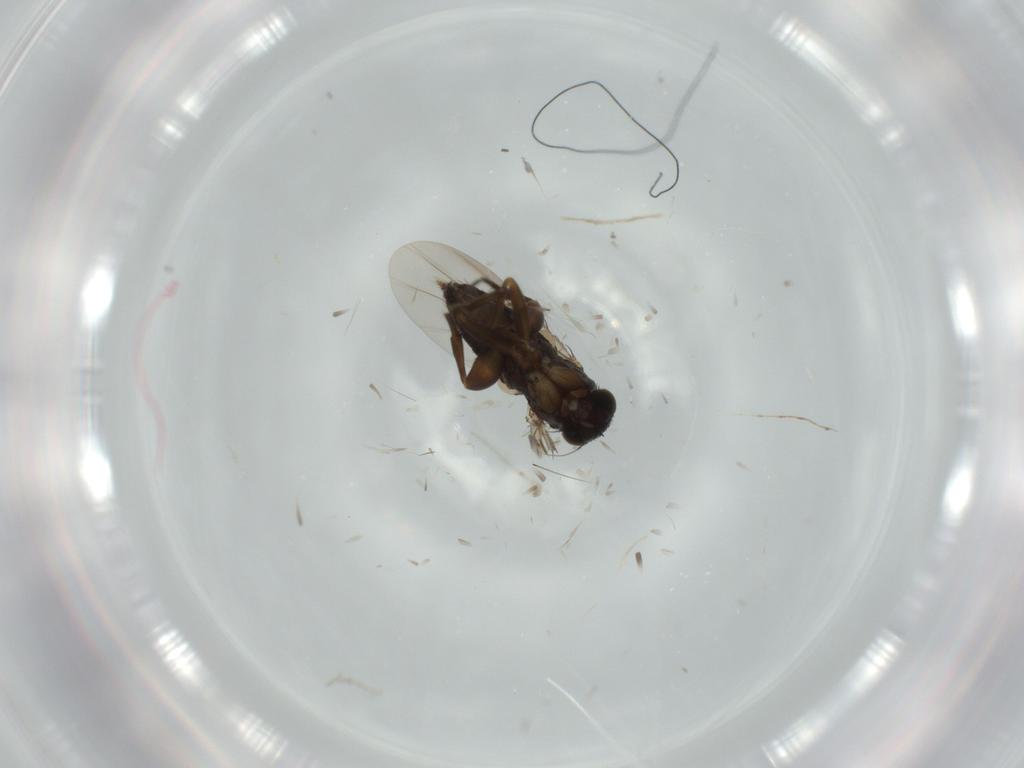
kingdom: Animalia
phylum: Arthropoda
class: Insecta
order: Diptera
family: Phoridae
